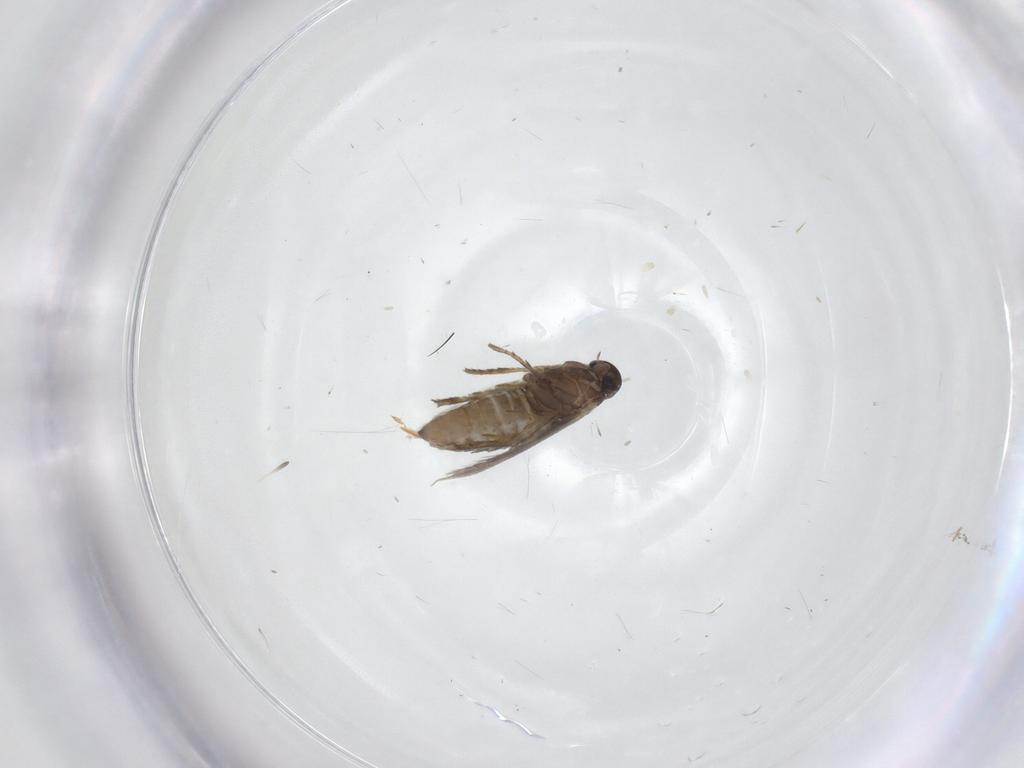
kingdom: Animalia
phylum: Arthropoda
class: Insecta
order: Lepidoptera
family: Heliozelidae
